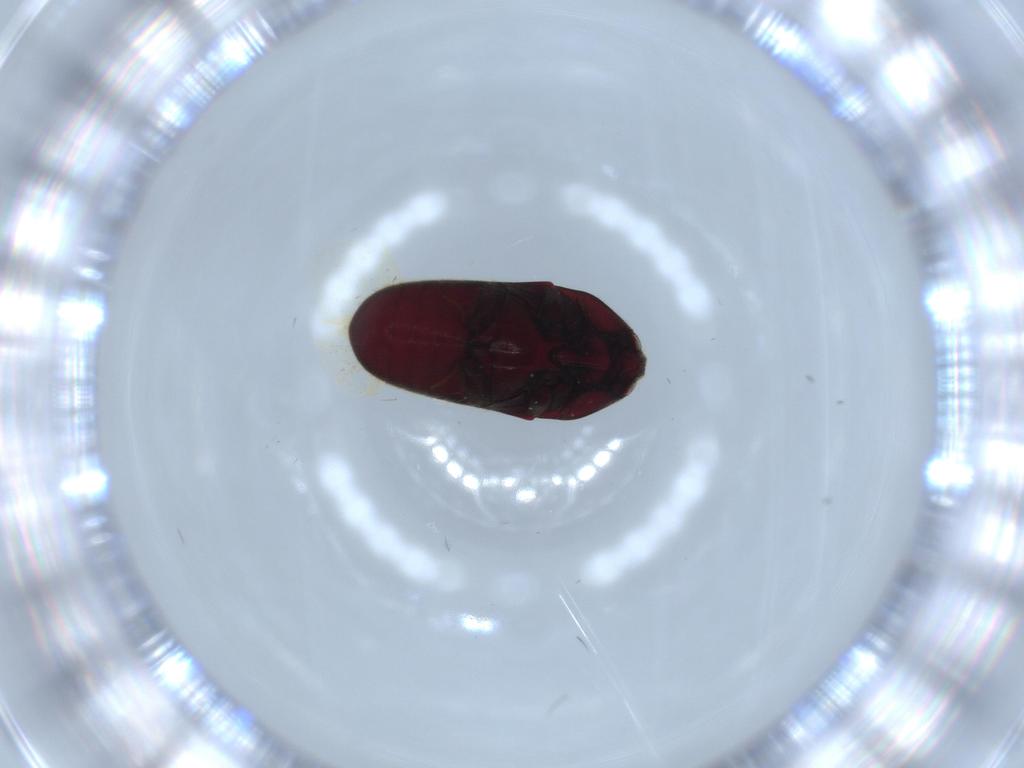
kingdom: Animalia
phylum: Arthropoda
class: Insecta
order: Coleoptera
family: Throscidae
